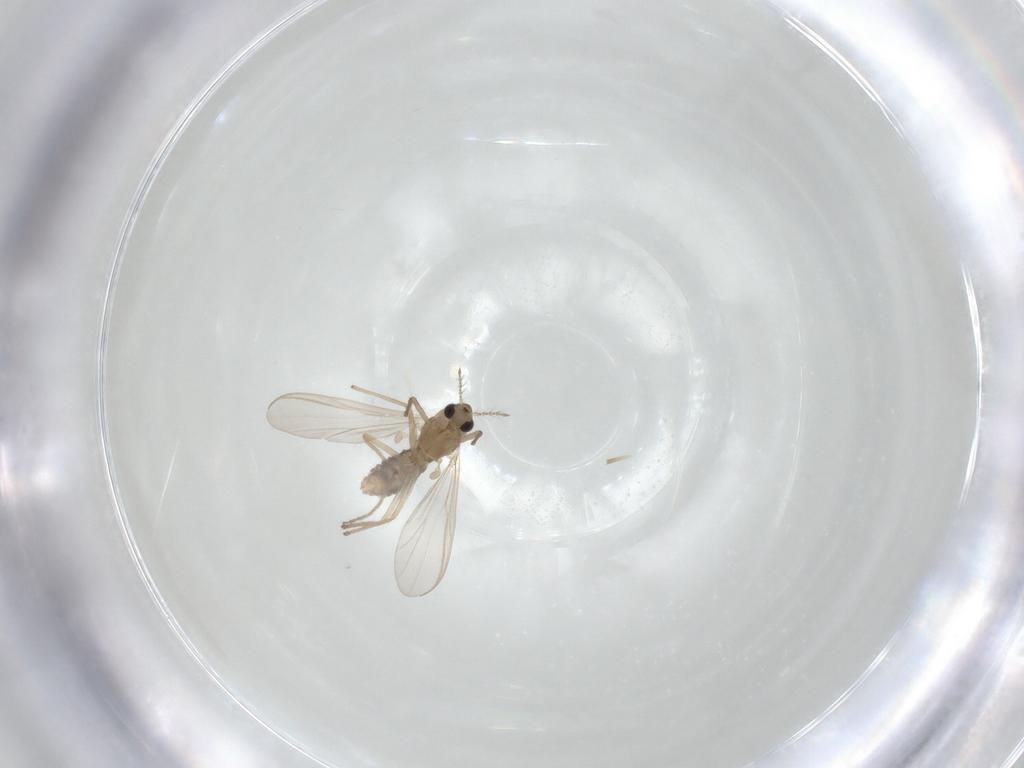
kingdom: Animalia
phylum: Arthropoda
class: Insecta
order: Diptera
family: Chironomidae
